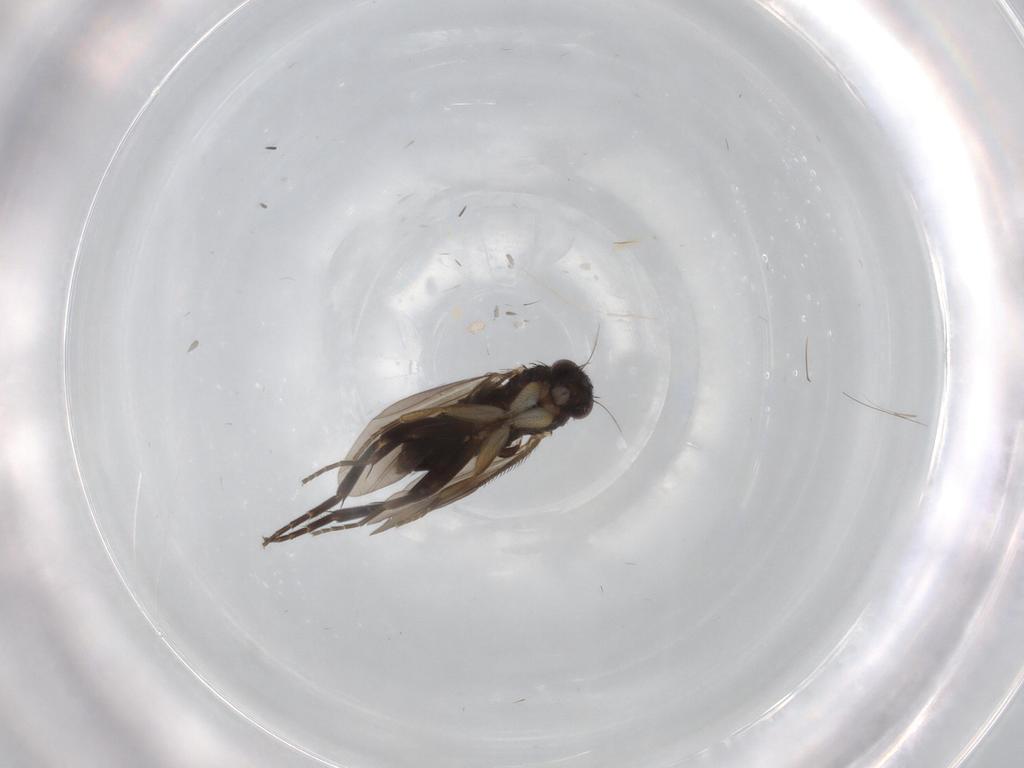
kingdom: Animalia
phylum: Arthropoda
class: Insecta
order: Diptera
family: Phoridae
